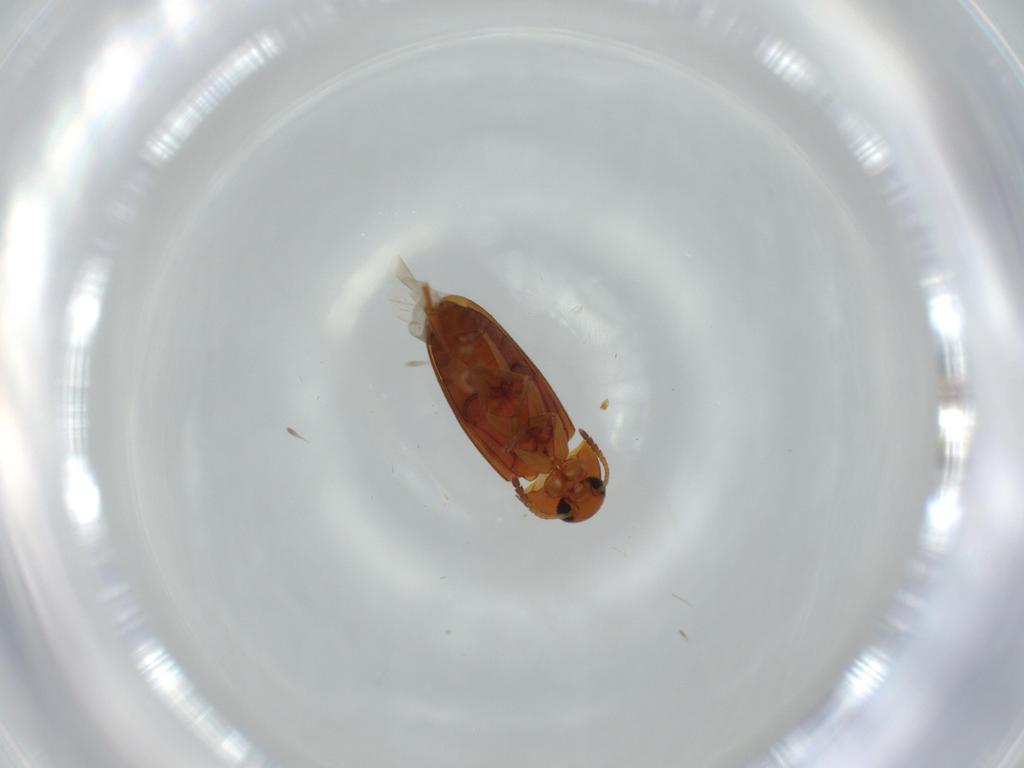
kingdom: Animalia
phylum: Arthropoda
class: Insecta
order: Coleoptera
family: Scraptiidae
